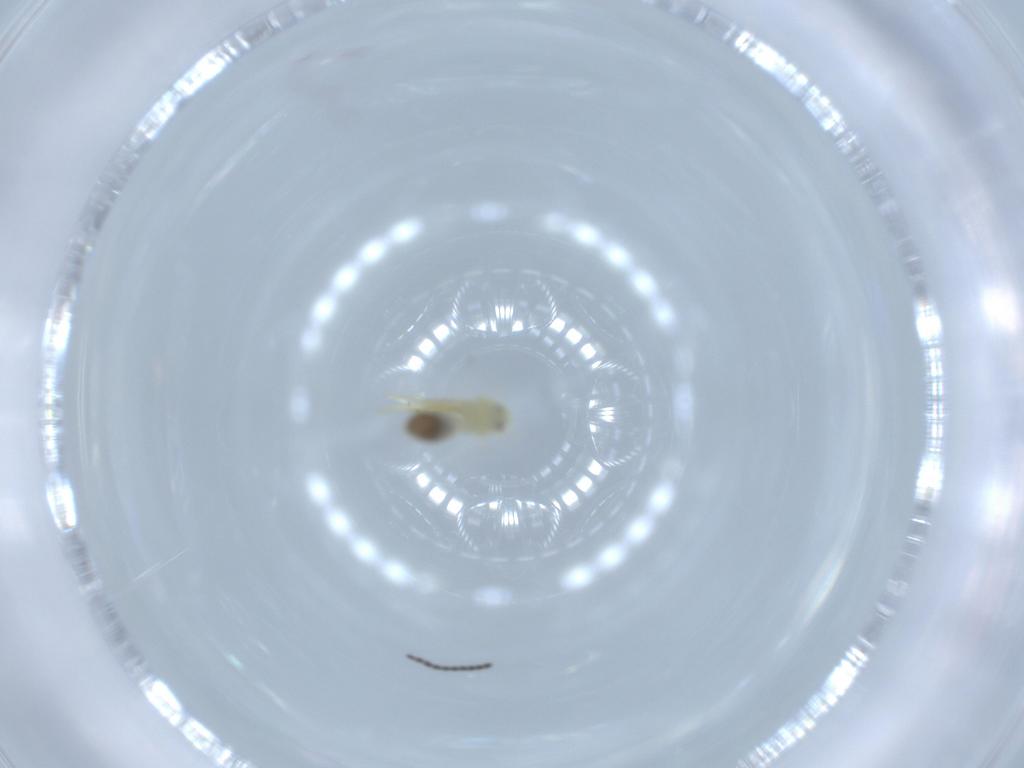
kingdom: Animalia
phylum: Arthropoda
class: Insecta
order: Hemiptera
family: Aleyrodidae
